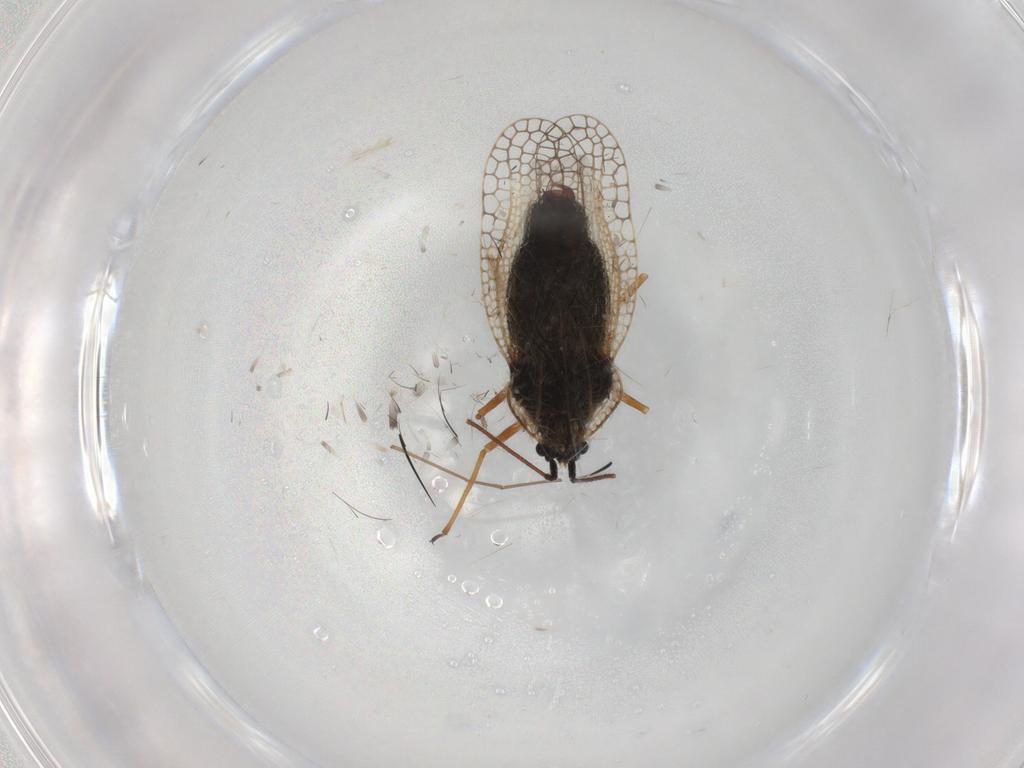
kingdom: Animalia
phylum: Arthropoda
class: Insecta
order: Hemiptera
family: Tingidae
